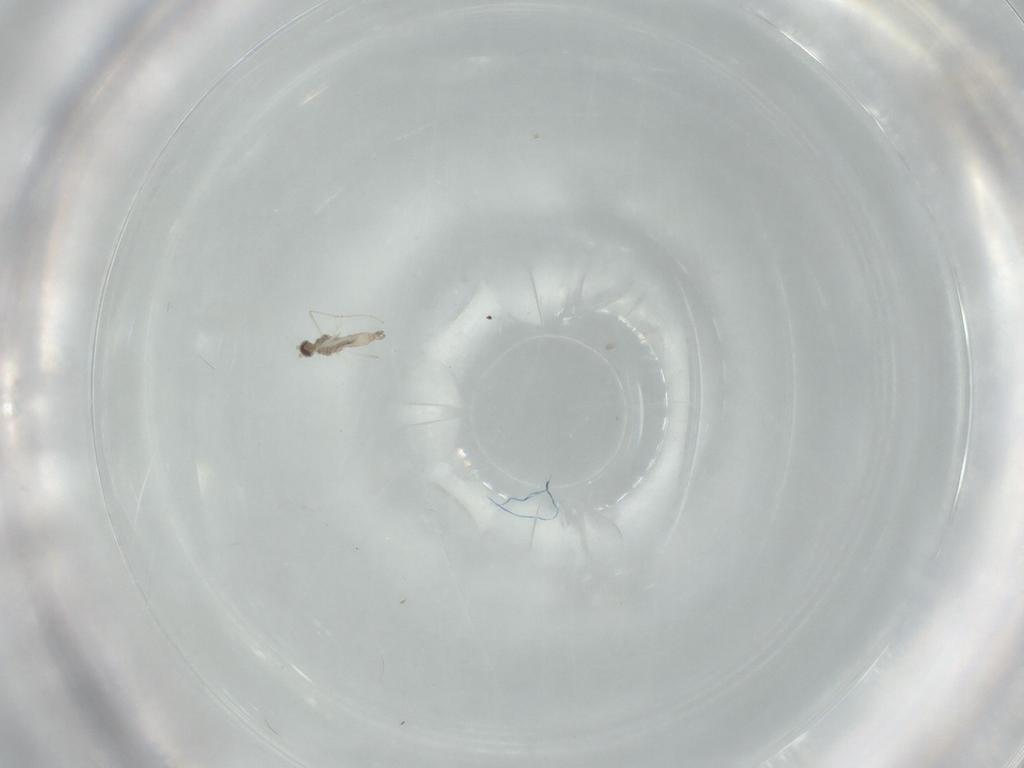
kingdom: Animalia
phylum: Arthropoda
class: Insecta
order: Diptera
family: Cecidomyiidae
